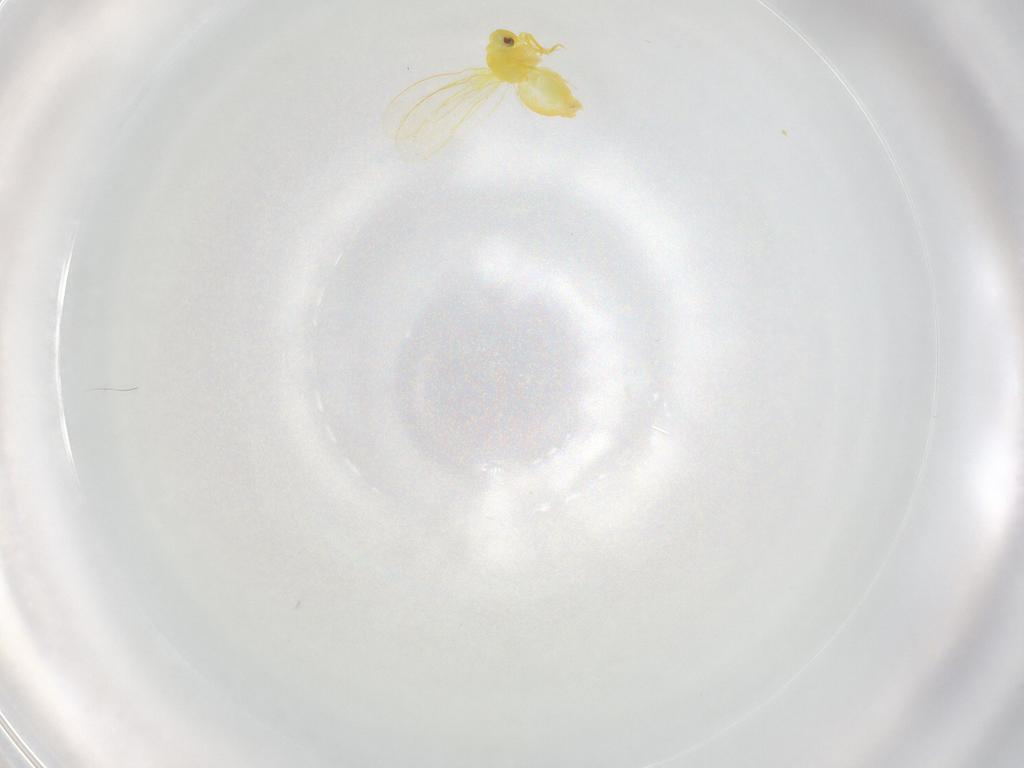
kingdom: Animalia
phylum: Arthropoda
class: Insecta
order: Hemiptera
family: Aleyrodidae
